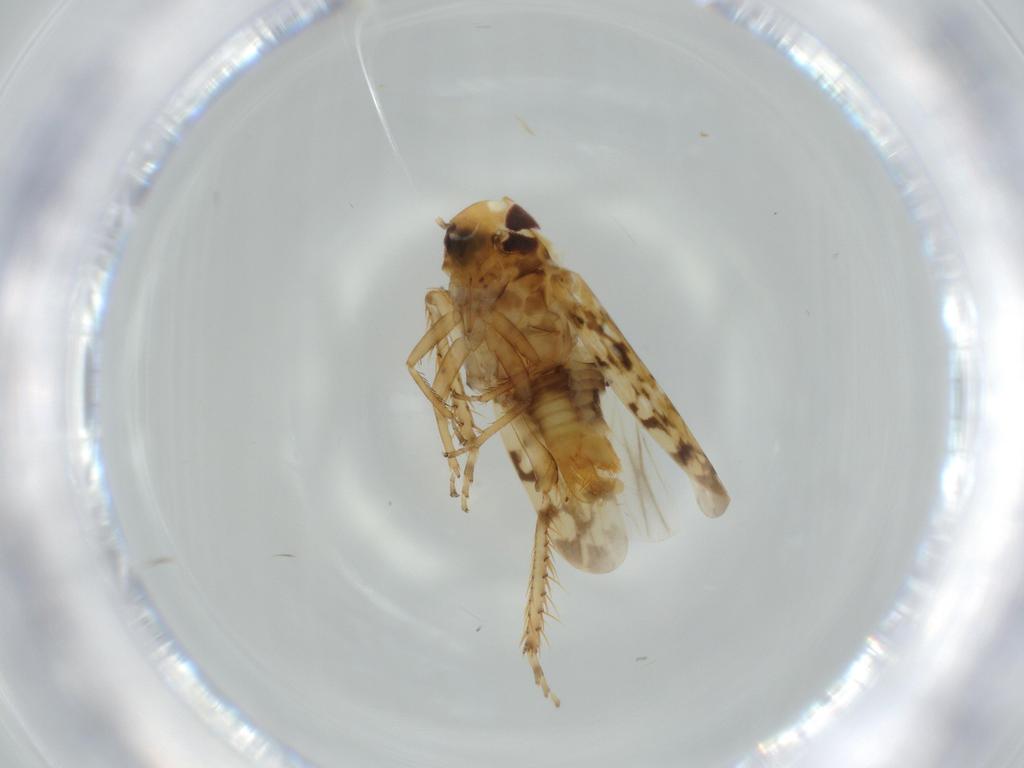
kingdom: Animalia
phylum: Arthropoda
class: Insecta
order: Hemiptera
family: Cicadellidae
